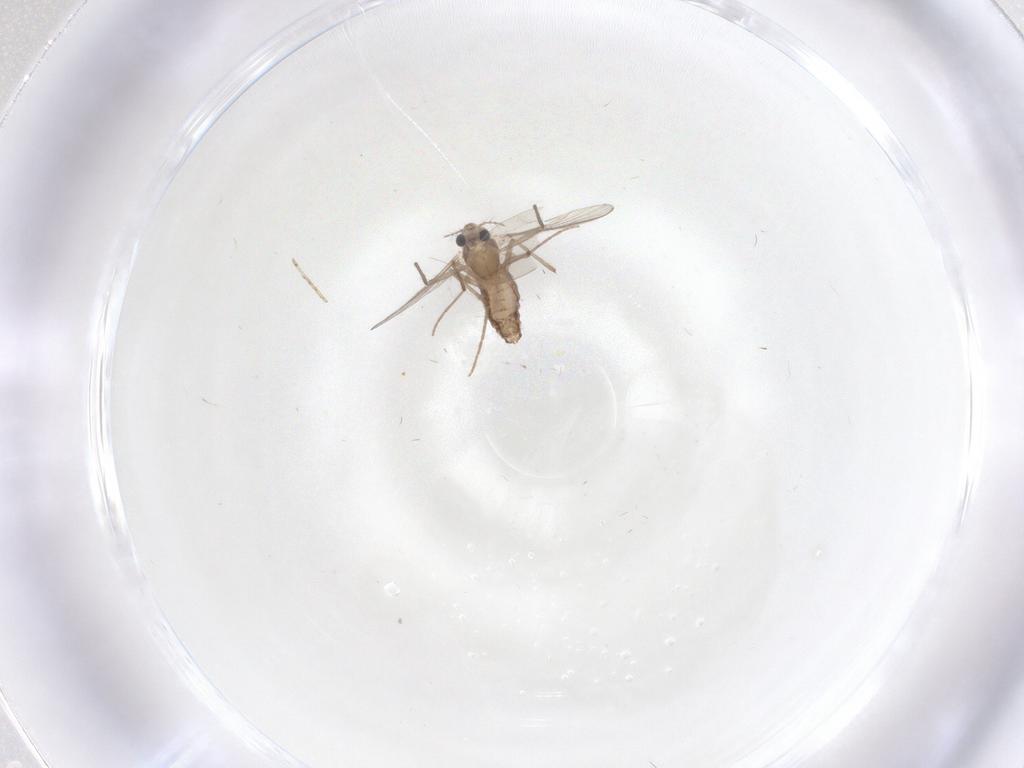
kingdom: Animalia
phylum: Arthropoda
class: Insecta
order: Diptera
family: Chironomidae
